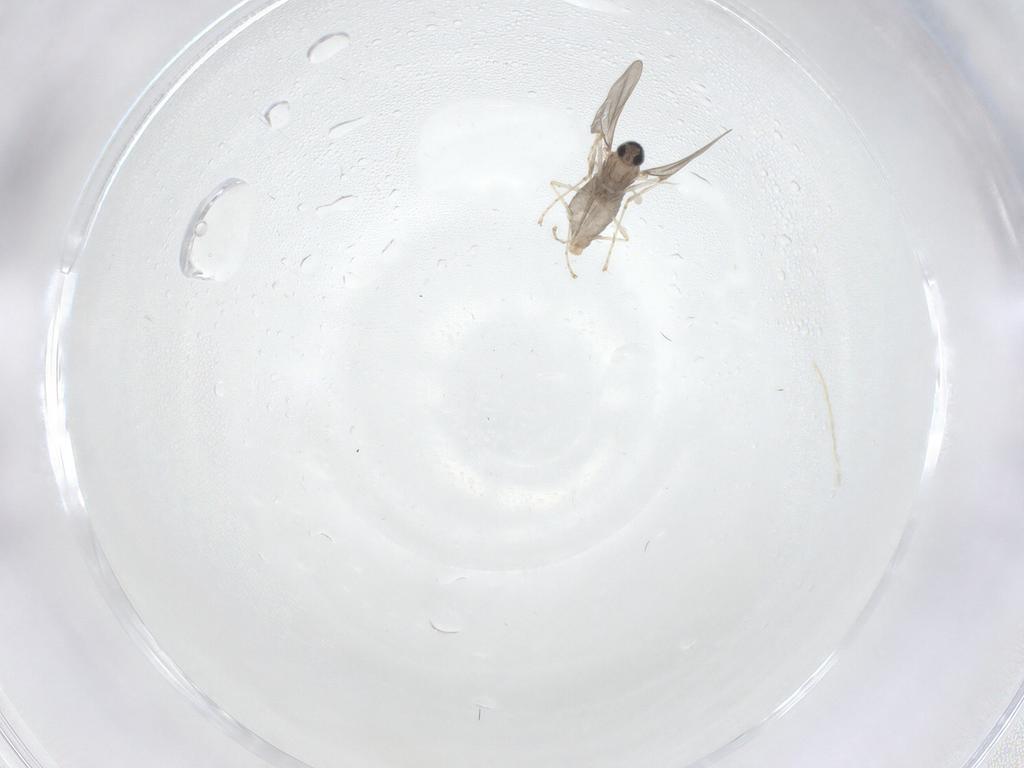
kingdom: Animalia
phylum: Arthropoda
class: Insecta
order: Diptera
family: Cecidomyiidae
